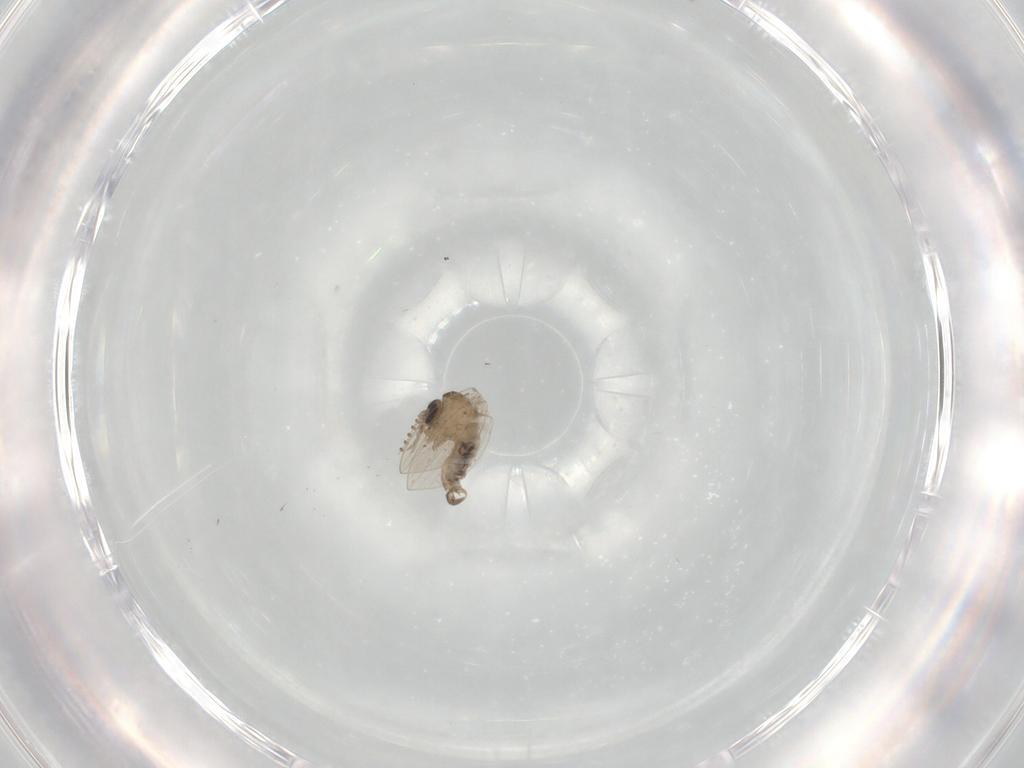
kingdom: Animalia
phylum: Arthropoda
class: Insecta
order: Diptera
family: Psychodidae
